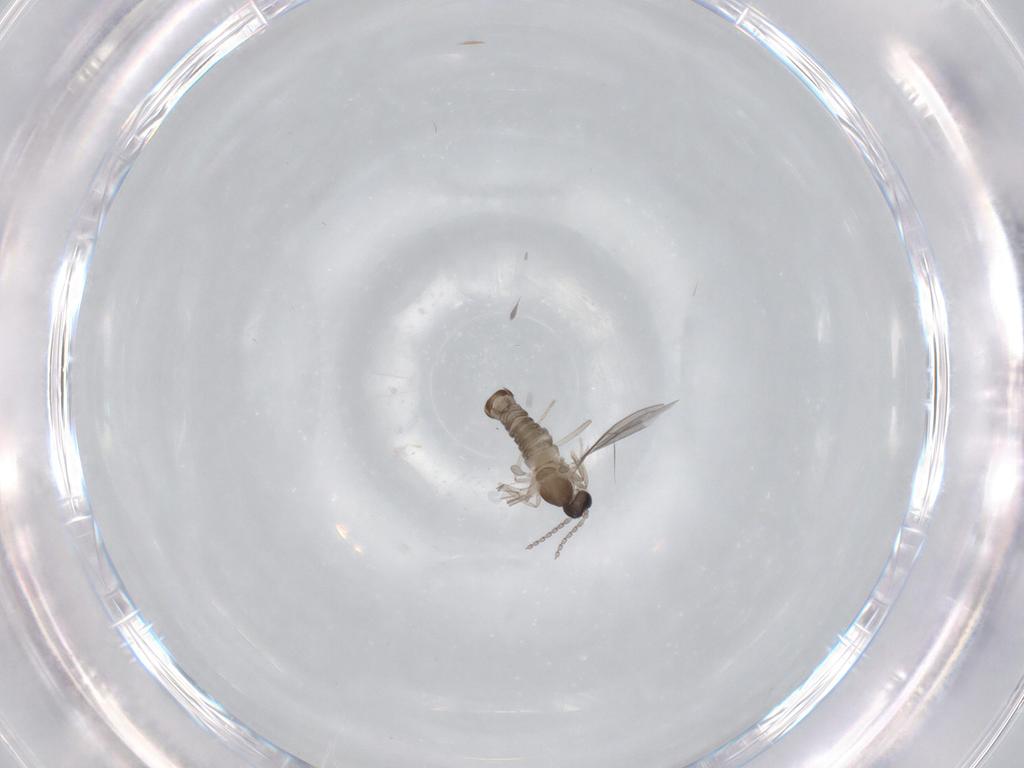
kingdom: Animalia
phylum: Arthropoda
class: Insecta
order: Diptera
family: Cecidomyiidae
